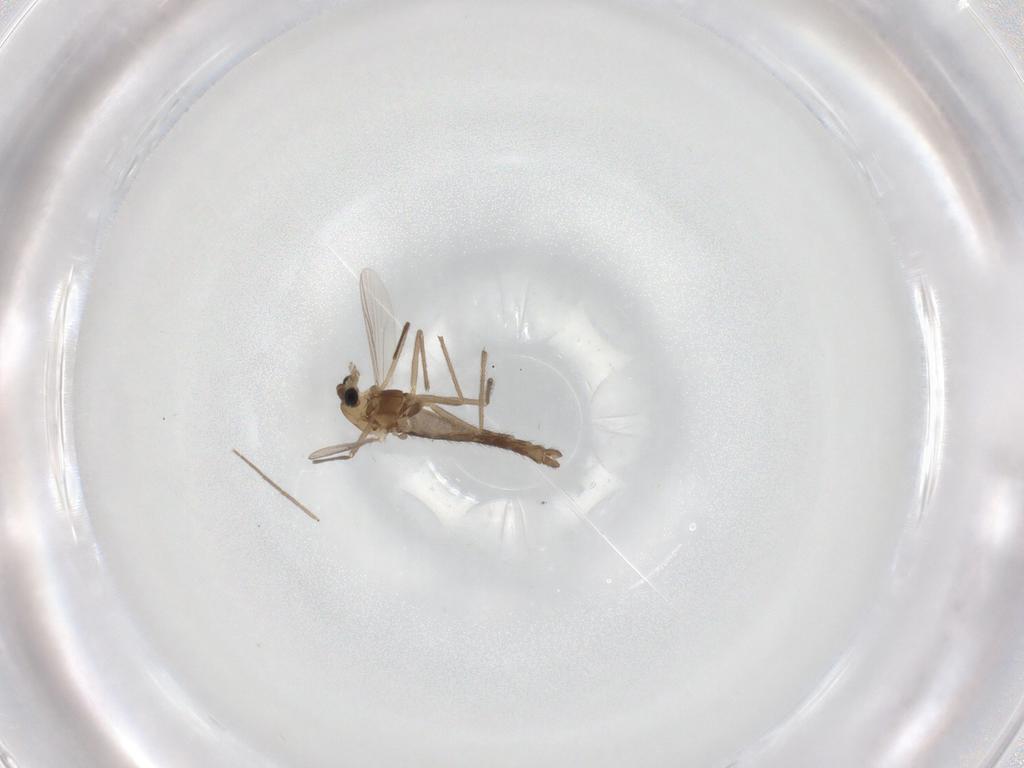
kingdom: Animalia
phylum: Arthropoda
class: Insecta
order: Diptera
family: Chironomidae
